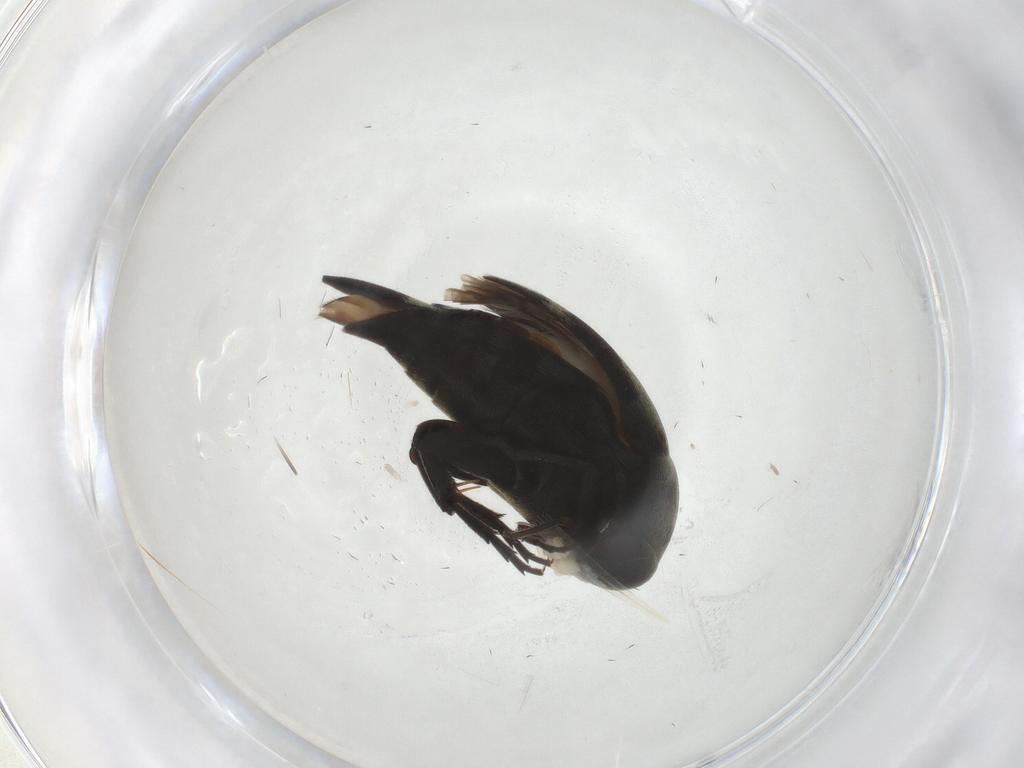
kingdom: Animalia
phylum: Arthropoda
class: Insecta
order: Coleoptera
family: Mordellidae
